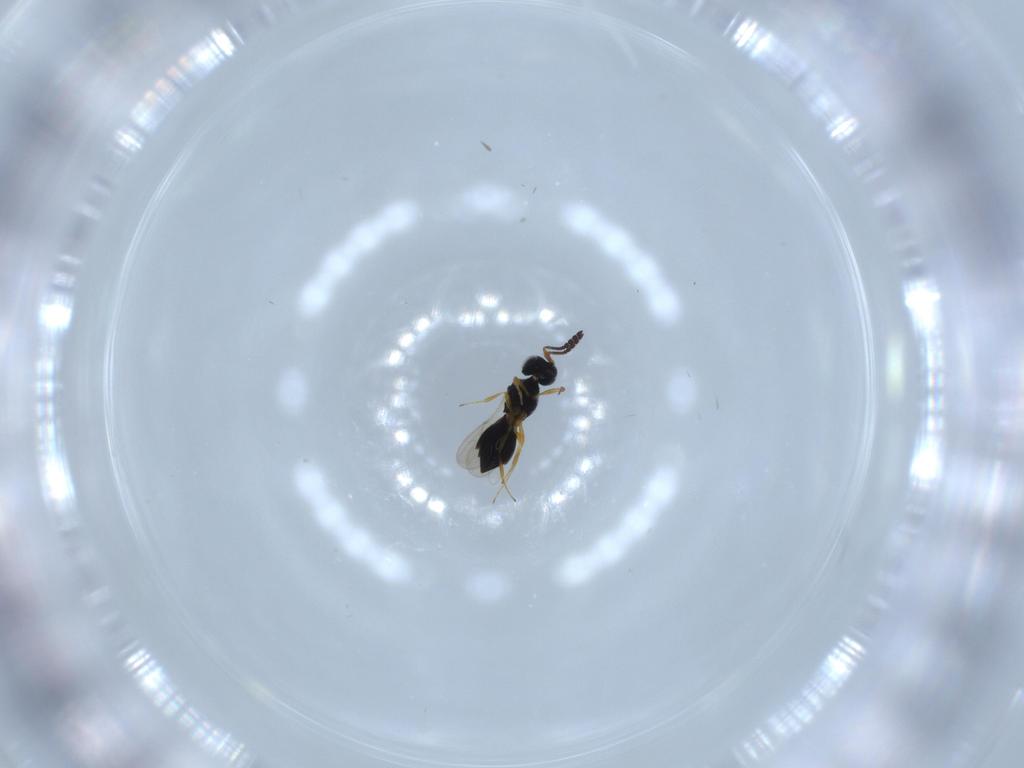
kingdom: Animalia
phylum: Arthropoda
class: Insecta
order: Hymenoptera
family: Scelionidae
